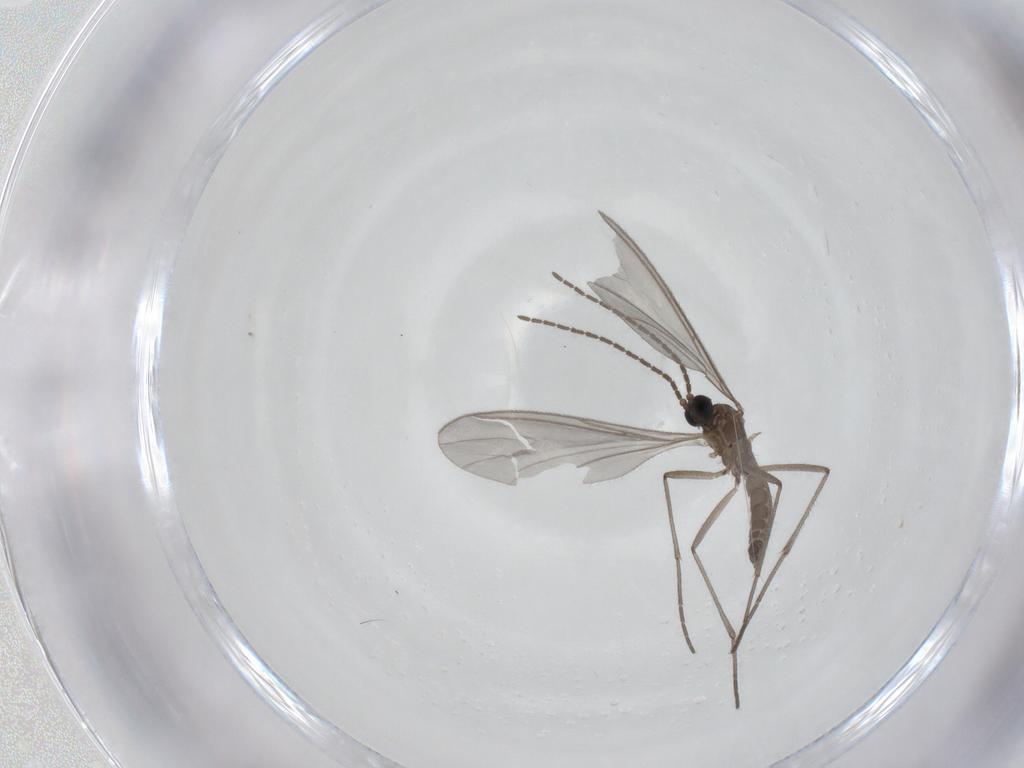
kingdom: Animalia
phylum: Arthropoda
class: Insecta
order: Diptera
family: Sciaridae
